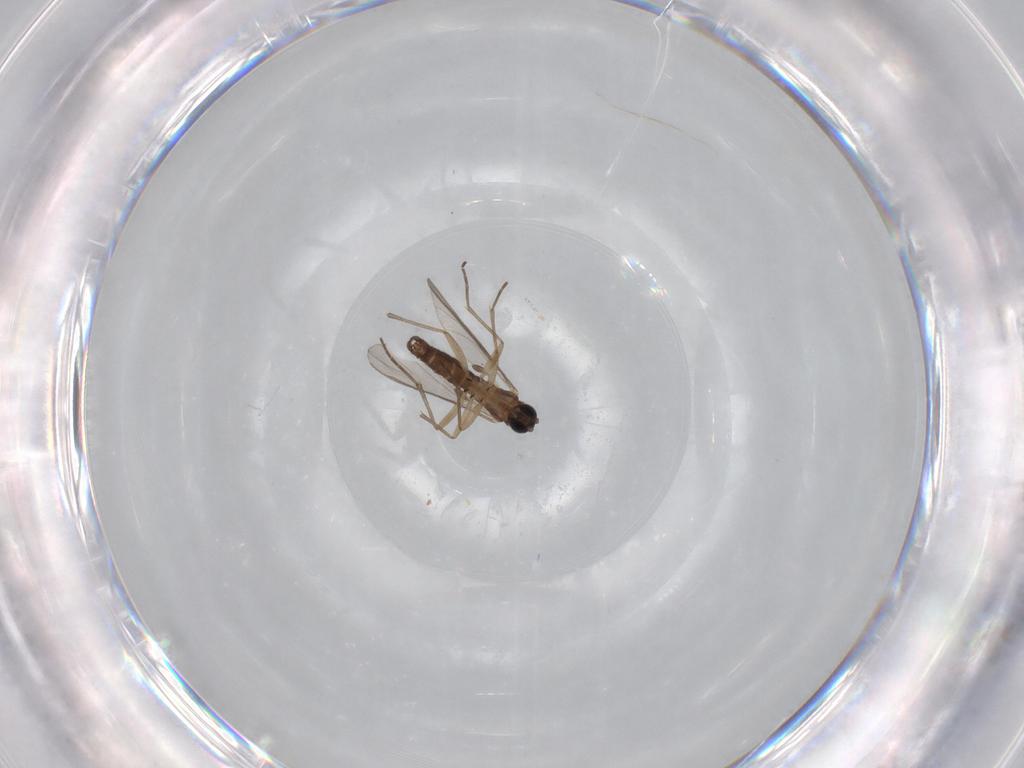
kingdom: Animalia
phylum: Arthropoda
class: Insecta
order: Diptera
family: Sciaridae
